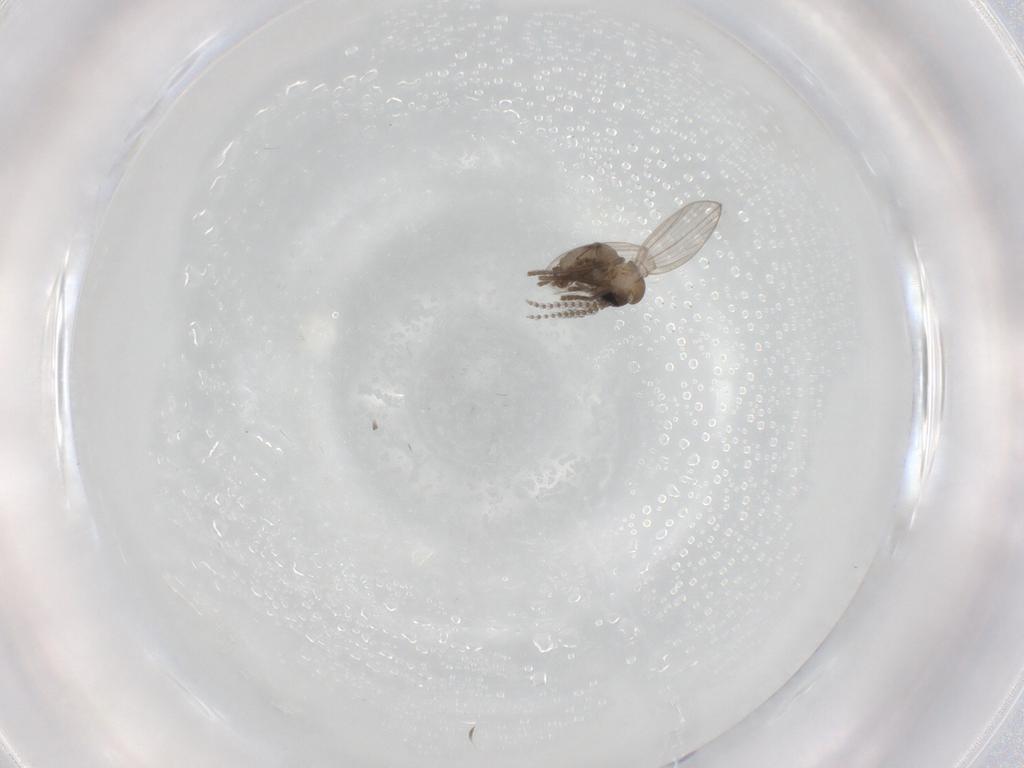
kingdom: Animalia
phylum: Arthropoda
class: Insecta
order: Diptera
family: Psychodidae
